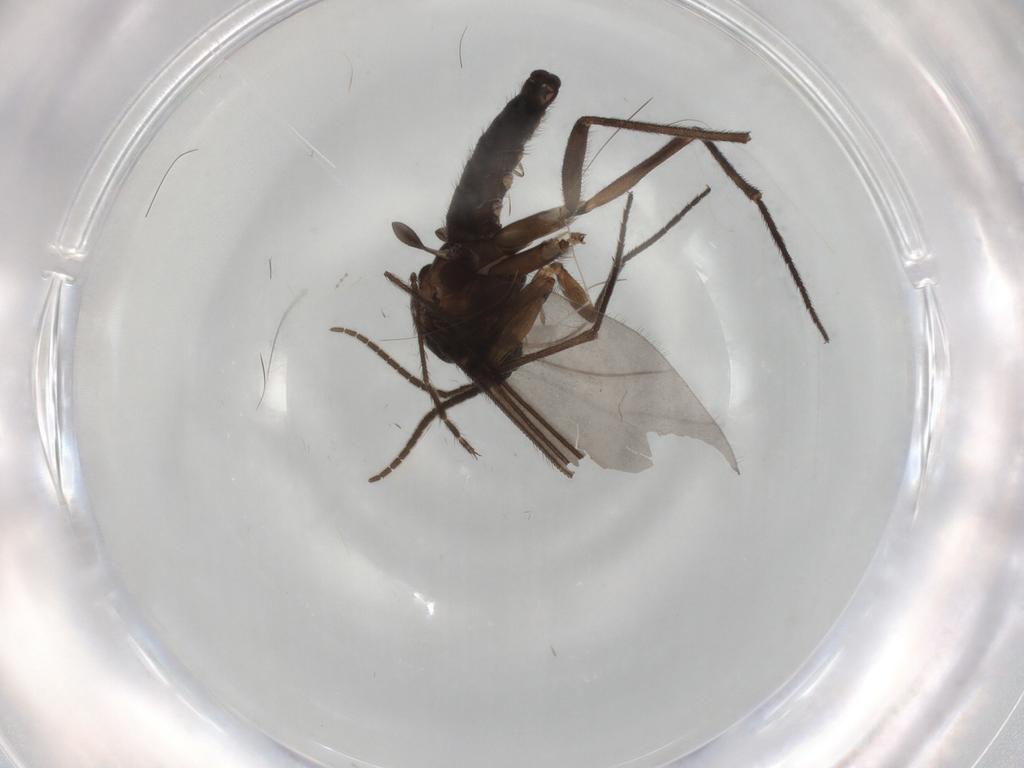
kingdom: Animalia
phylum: Arthropoda
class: Insecta
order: Diptera
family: Sciaridae
